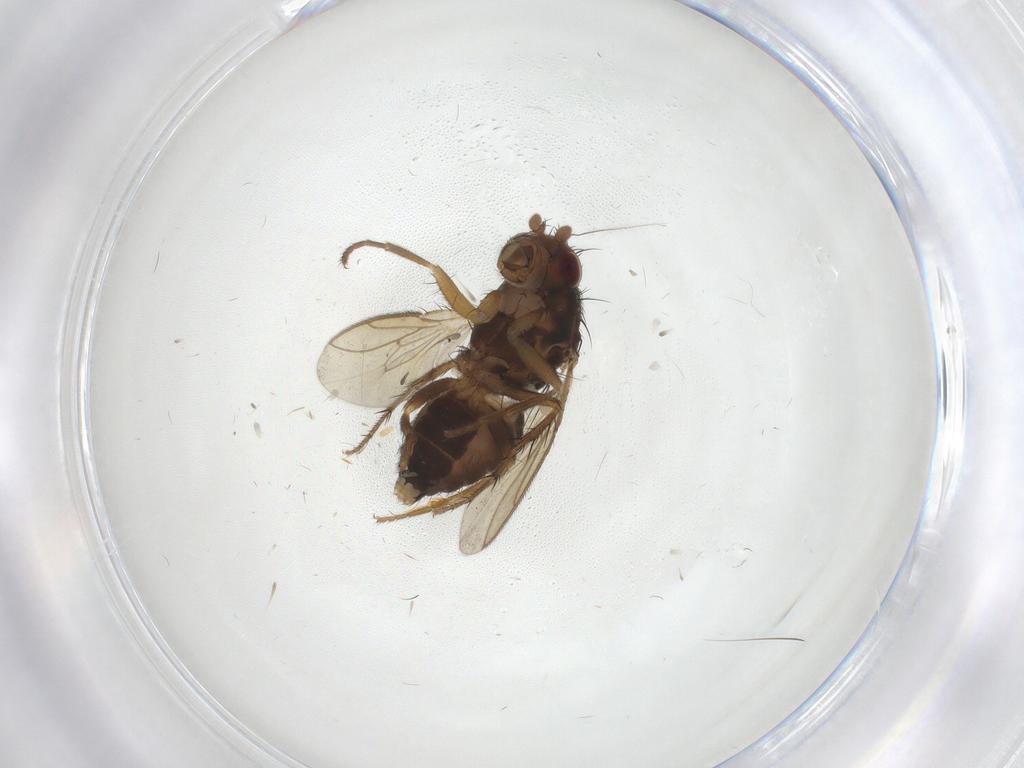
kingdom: Animalia
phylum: Arthropoda
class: Insecta
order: Diptera
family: Sphaeroceridae
